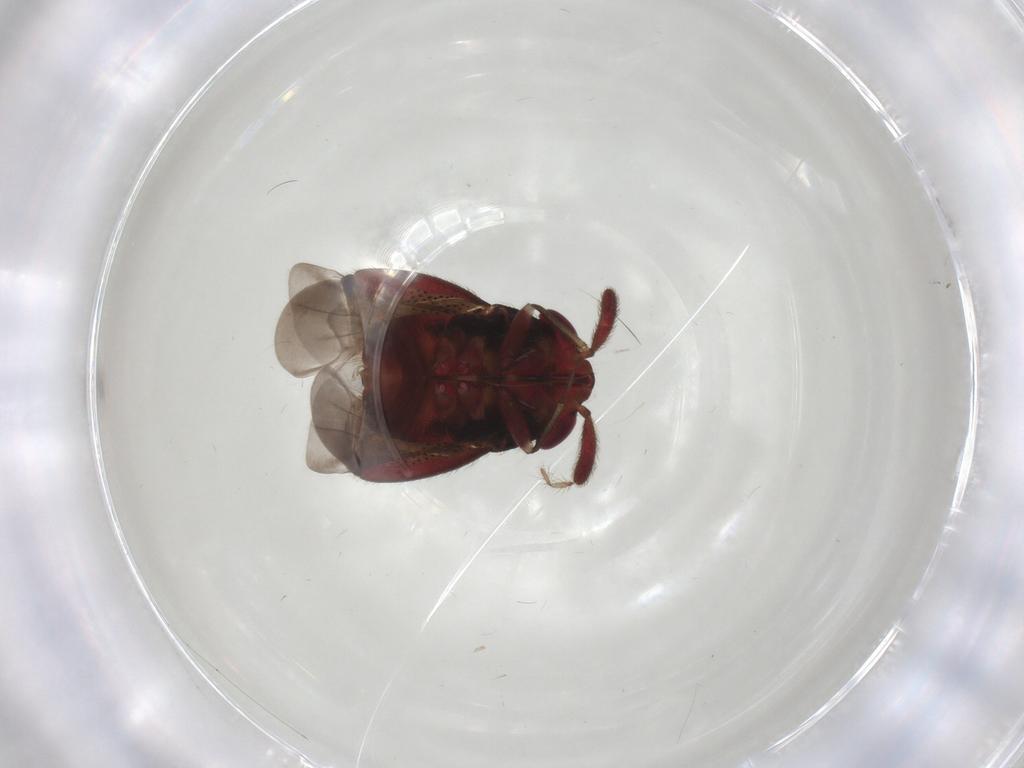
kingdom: Animalia
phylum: Arthropoda
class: Insecta
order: Hemiptera
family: Miridae
